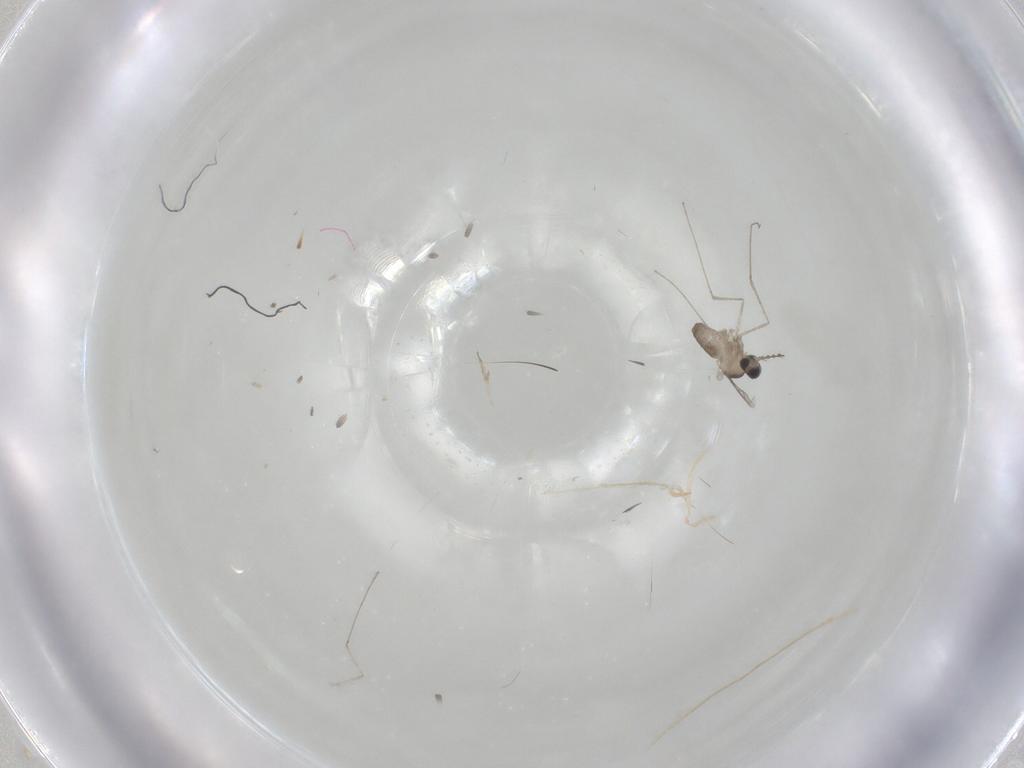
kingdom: Animalia
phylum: Arthropoda
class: Insecta
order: Diptera
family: Cecidomyiidae
